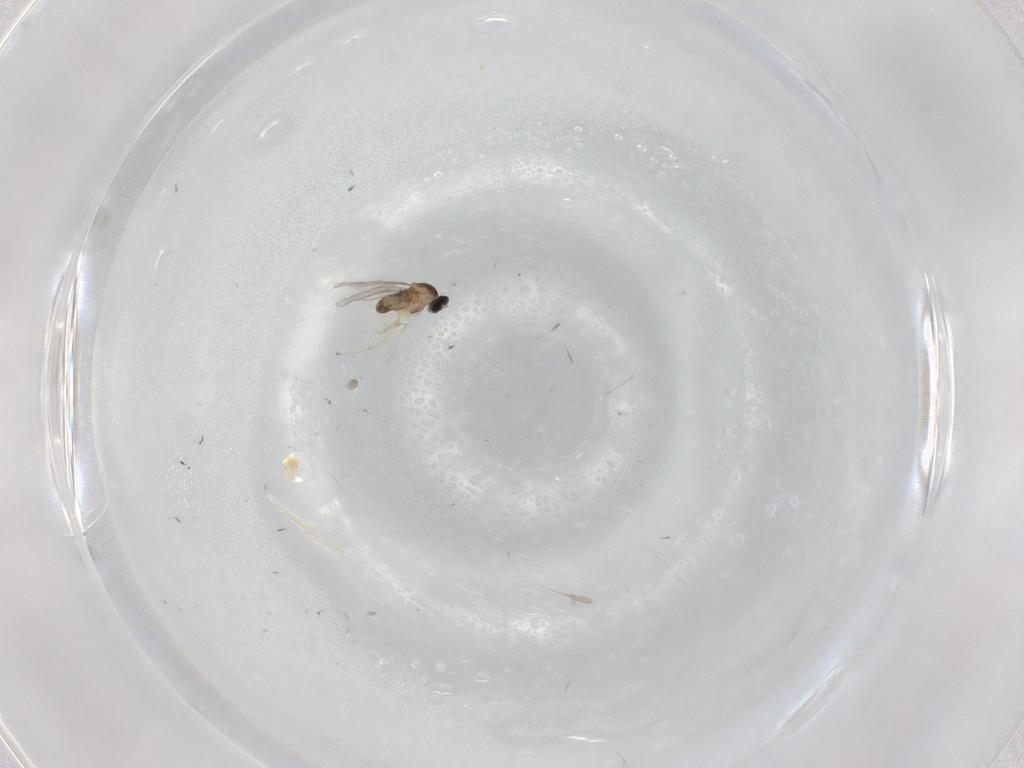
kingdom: Animalia
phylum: Arthropoda
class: Insecta
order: Diptera
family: Cecidomyiidae
